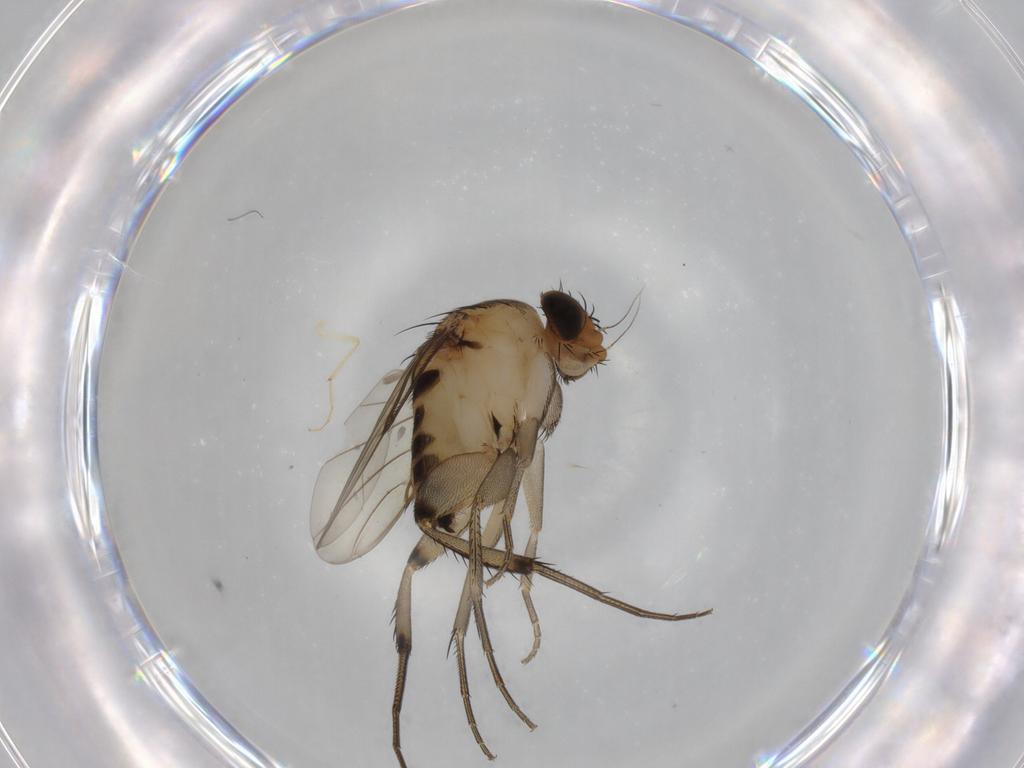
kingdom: Animalia
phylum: Arthropoda
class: Insecta
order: Diptera
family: Phoridae
